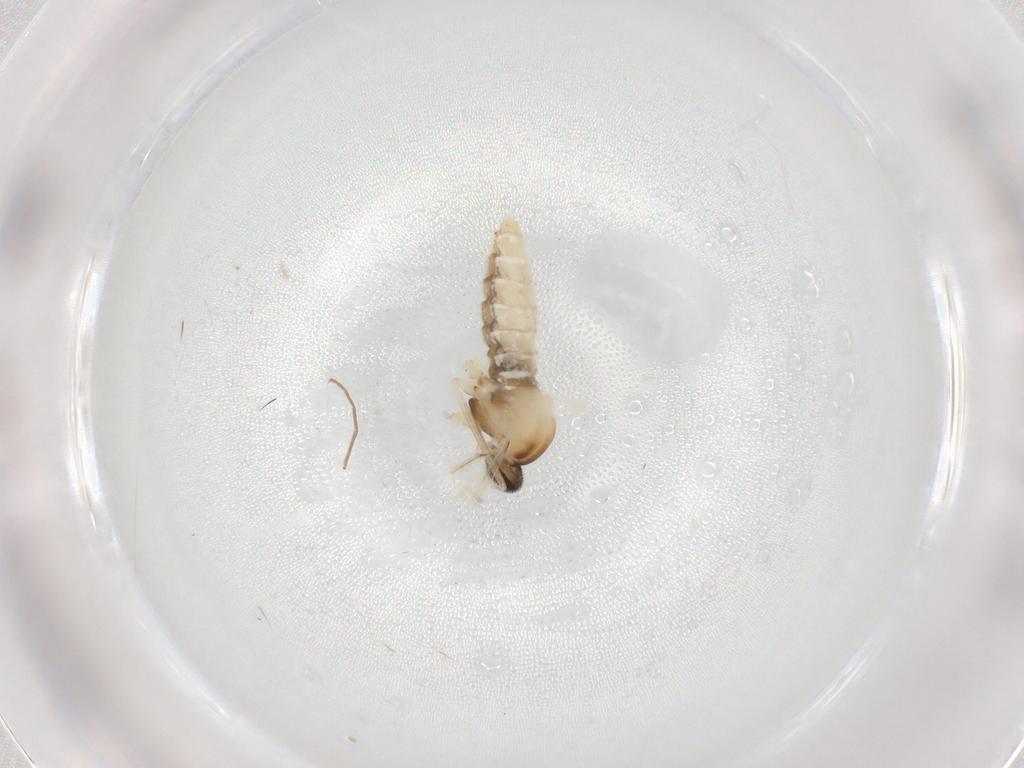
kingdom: Animalia
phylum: Arthropoda
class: Insecta
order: Diptera
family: Cecidomyiidae
